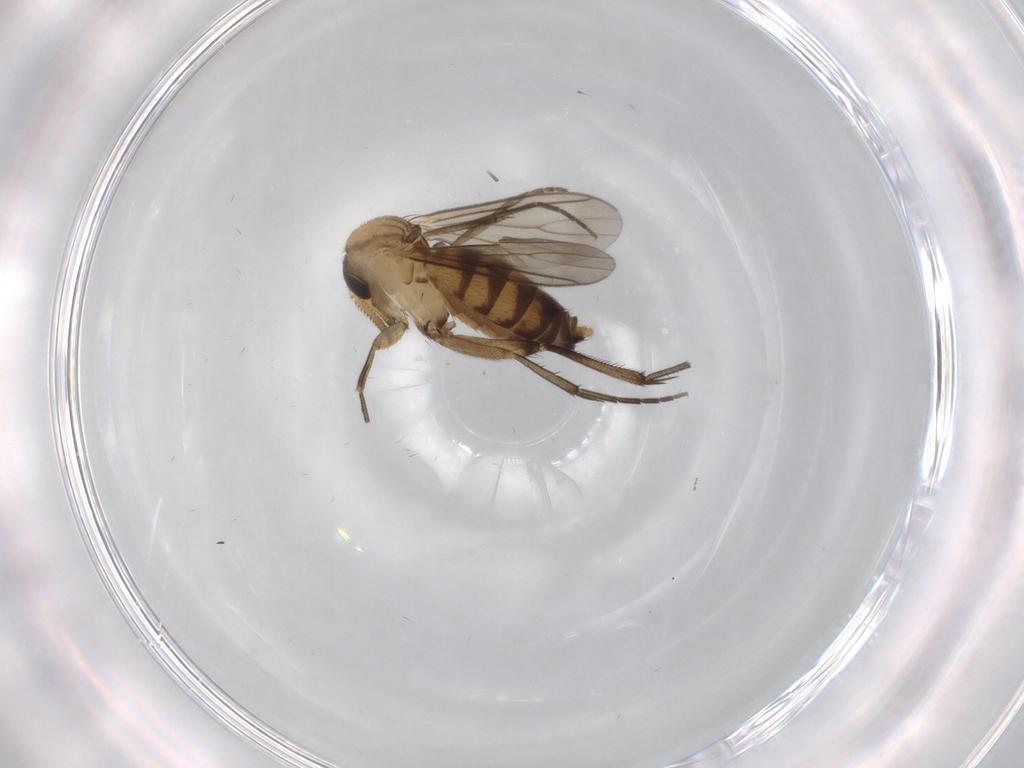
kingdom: Animalia
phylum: Arthropoda
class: Insecta
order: Diptera
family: Mycetophilidae
